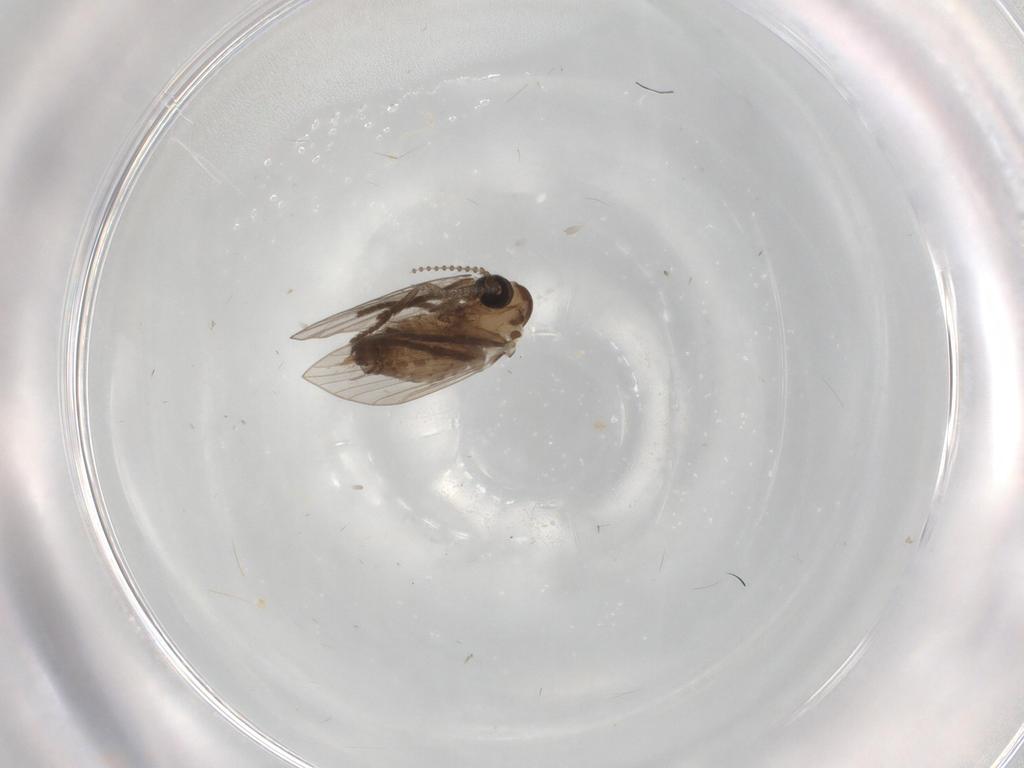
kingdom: Animalia
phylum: Arthropoda
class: Insecta
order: Diptera
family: Psychodidae
